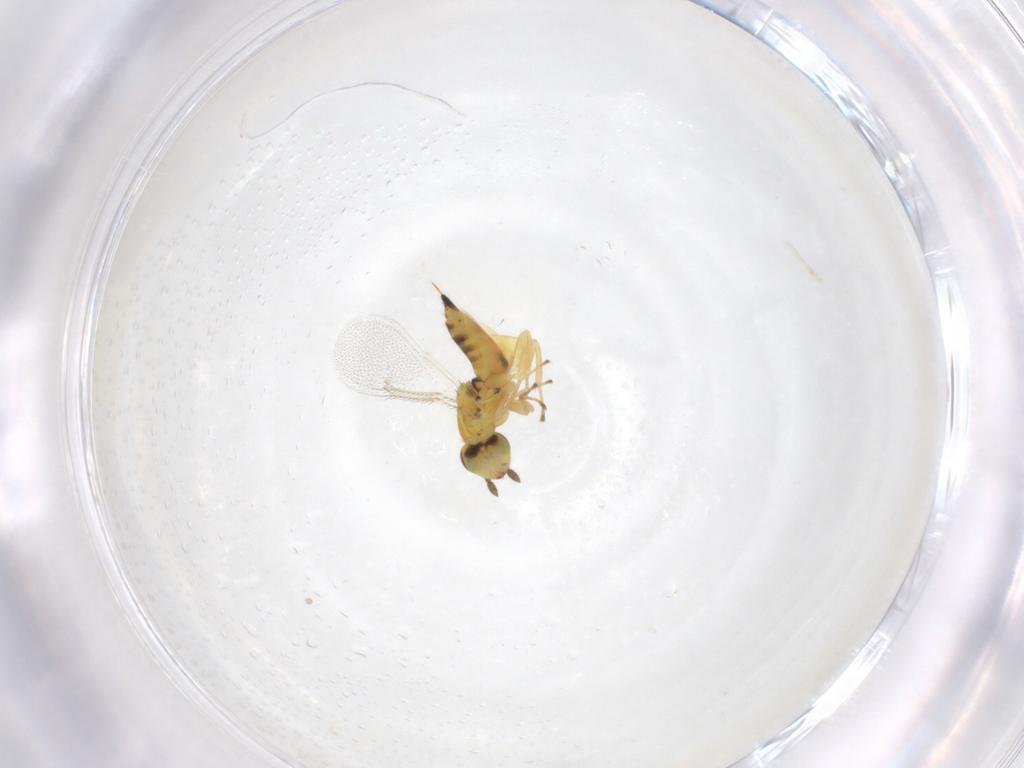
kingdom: Animalia
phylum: Arthropoda
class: Insecta
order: Hymenoptera
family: Eulophidae
